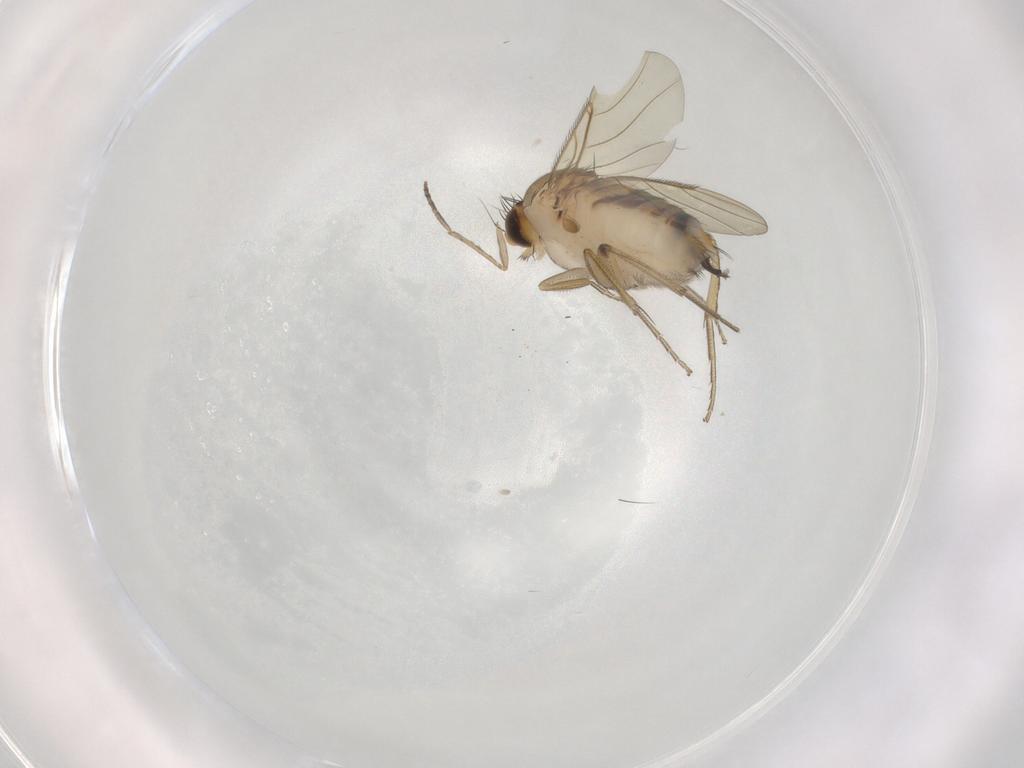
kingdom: Animalia
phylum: Arthropoda
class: Insecta
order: Diptera
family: Phoridae
